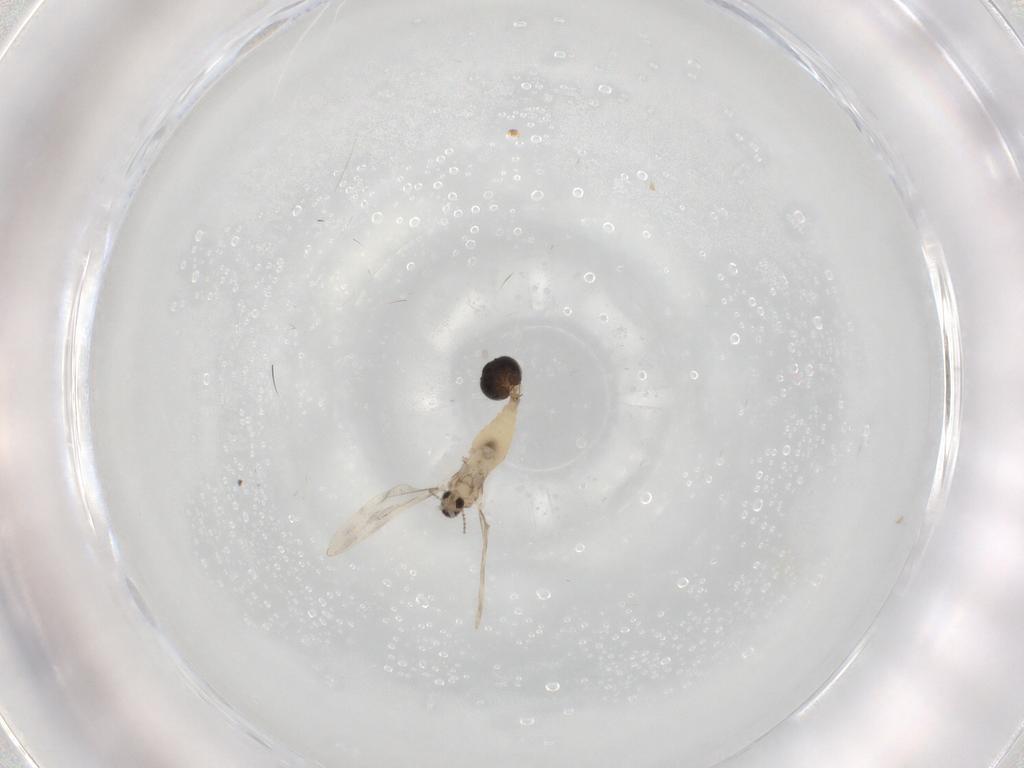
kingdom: Animalia
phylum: Arthropoda
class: Insecta
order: Diptera
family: Cecidomyiidae
